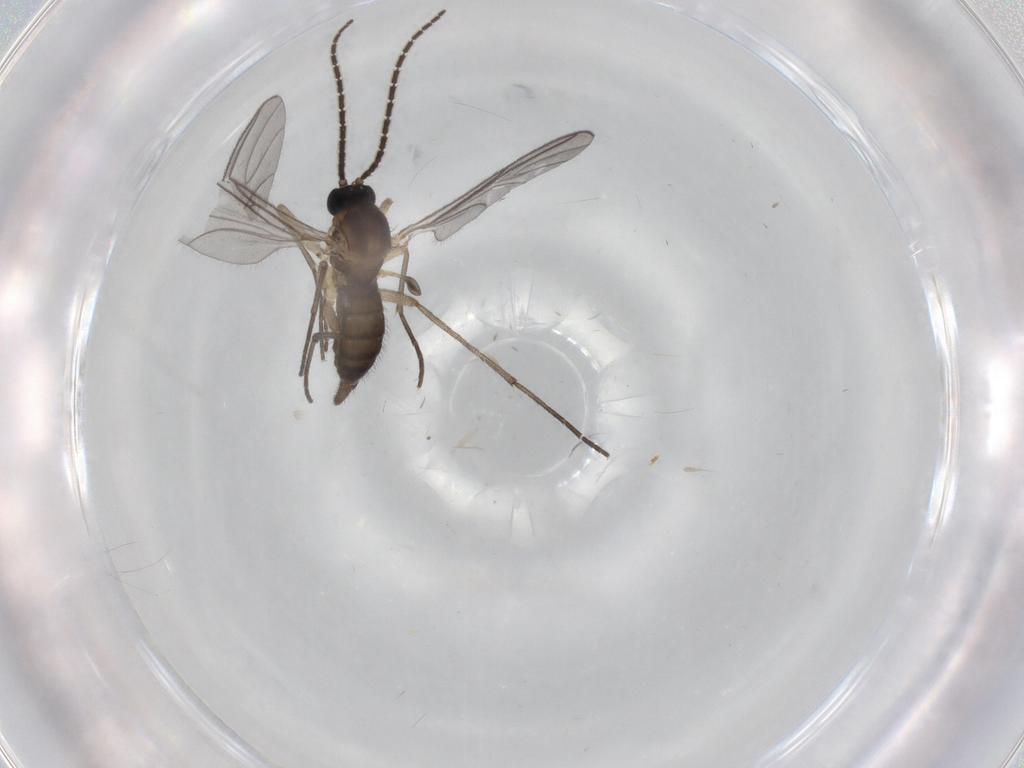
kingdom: Animalia
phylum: Arthropoda
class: Insecta
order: Diptera
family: Sciaridae
